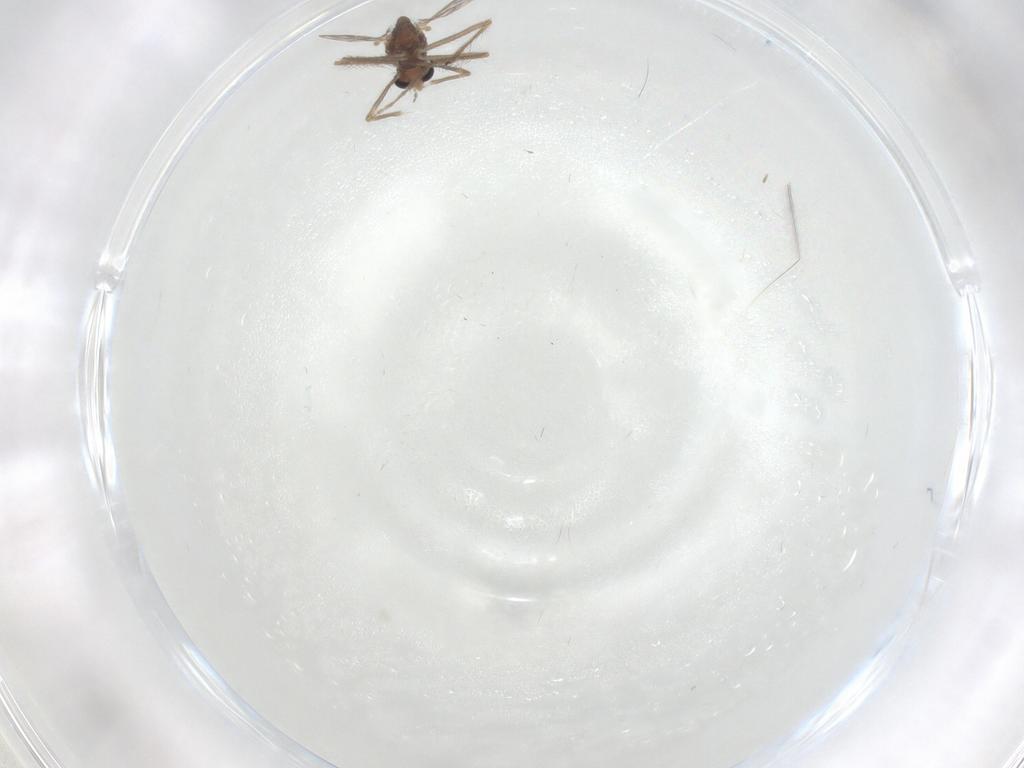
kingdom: Animalia
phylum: Arthropoda
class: Insecta
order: Diptera
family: Chironomidae
